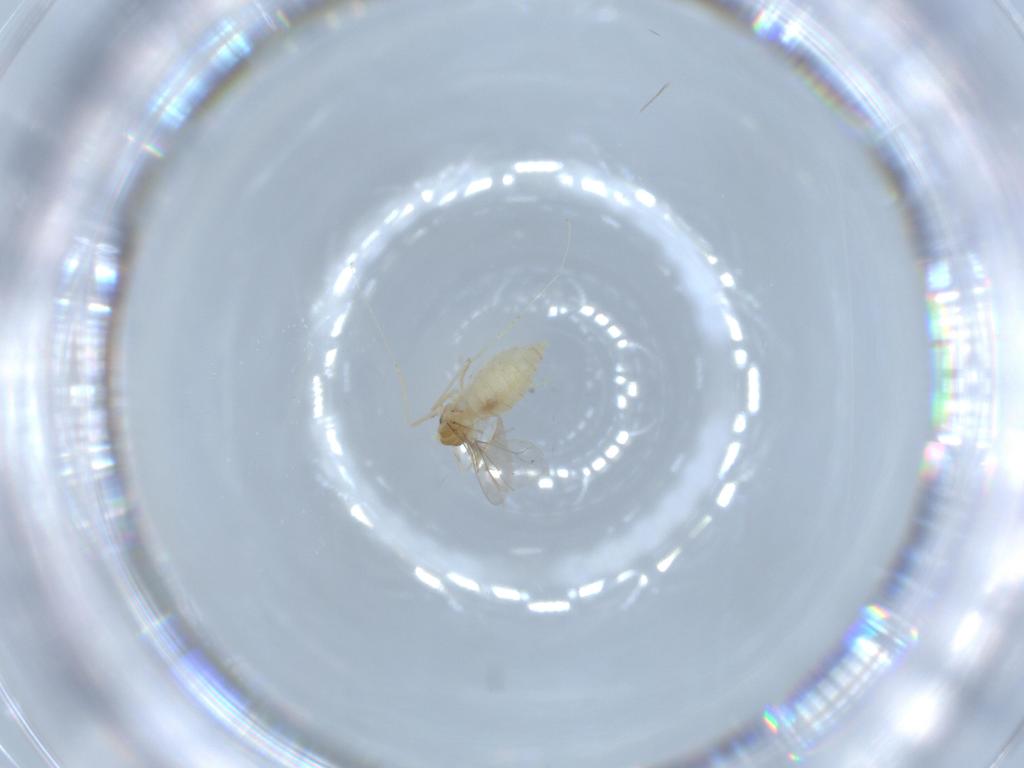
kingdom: Animalia
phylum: Arthropoda
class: Insecta
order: Diptera
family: Cecidomyiidae
